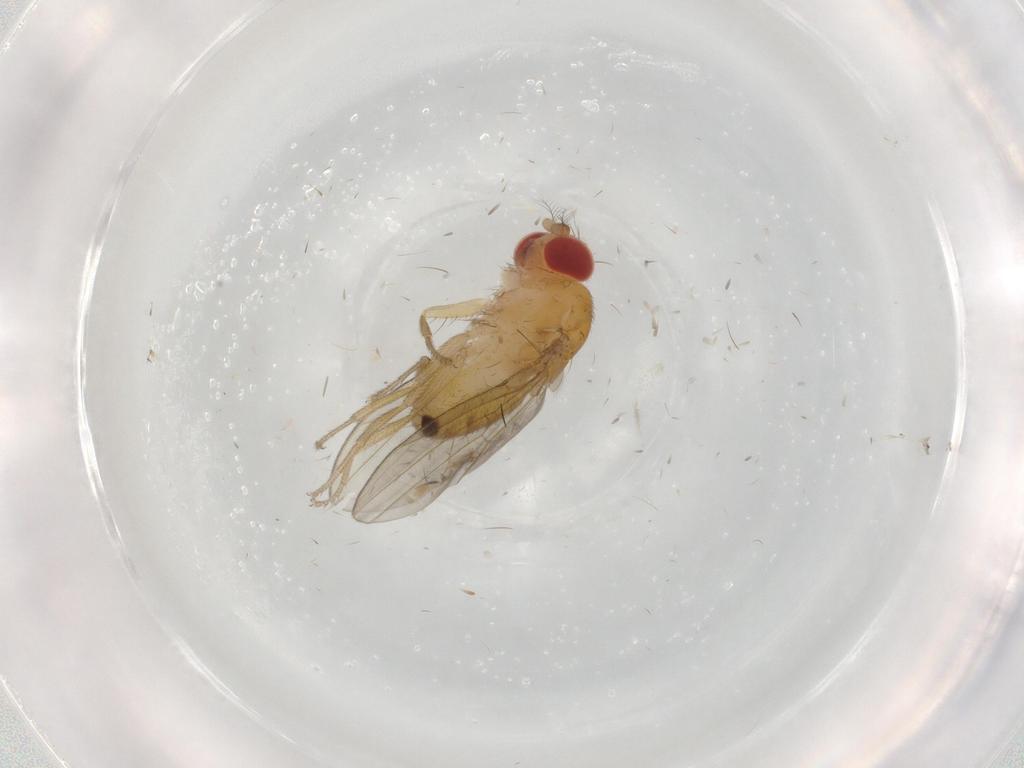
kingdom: Animalia
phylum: Arthropoda
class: Insecta
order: Diptera
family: Drosophilidae
